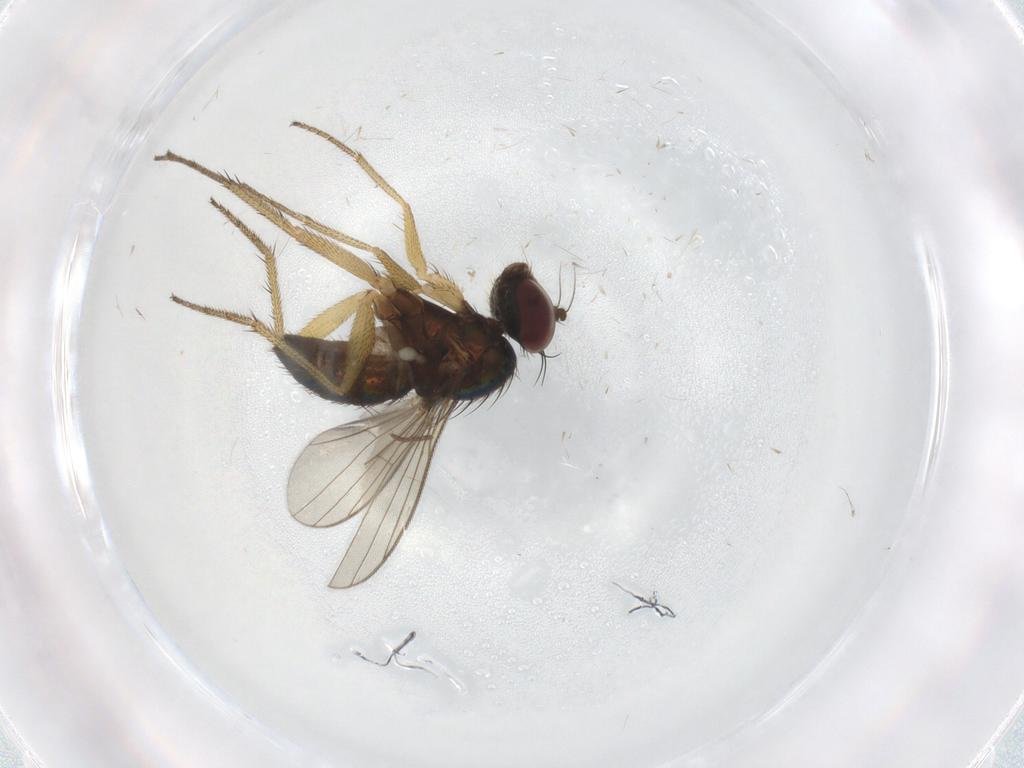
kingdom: Animalia
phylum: Arthropoda
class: Insecta
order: Diptera
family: Dolichopodidae
